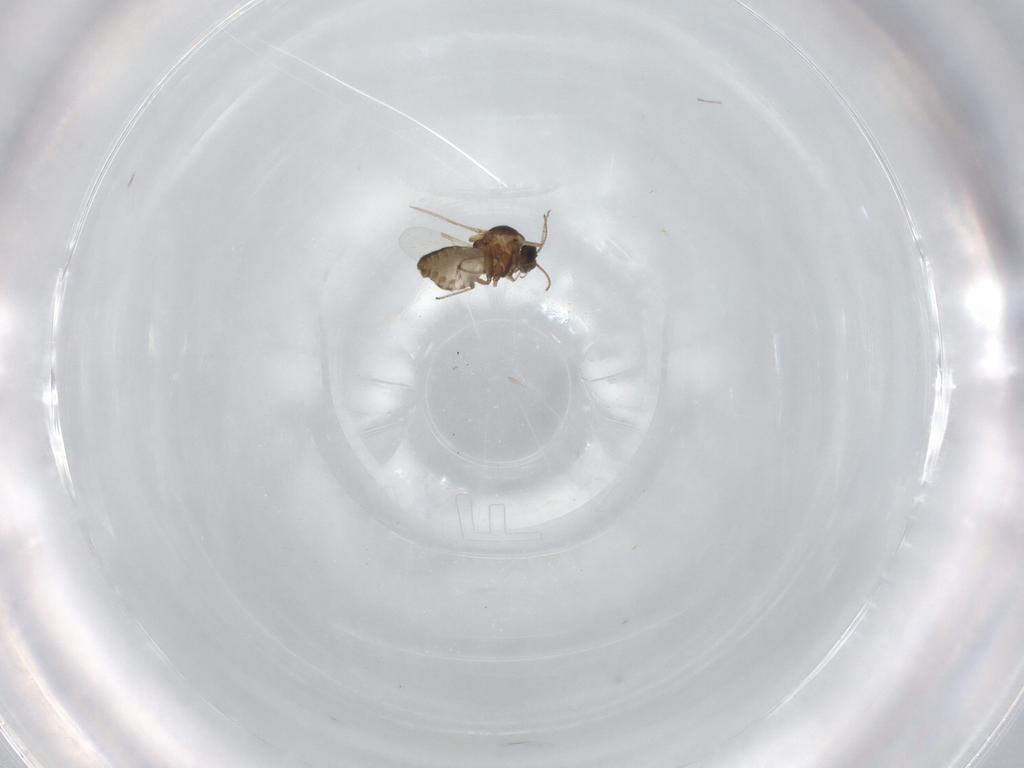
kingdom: Animalia
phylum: Arthropoda
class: Insecta
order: Diptera
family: Ceratopogonidae
